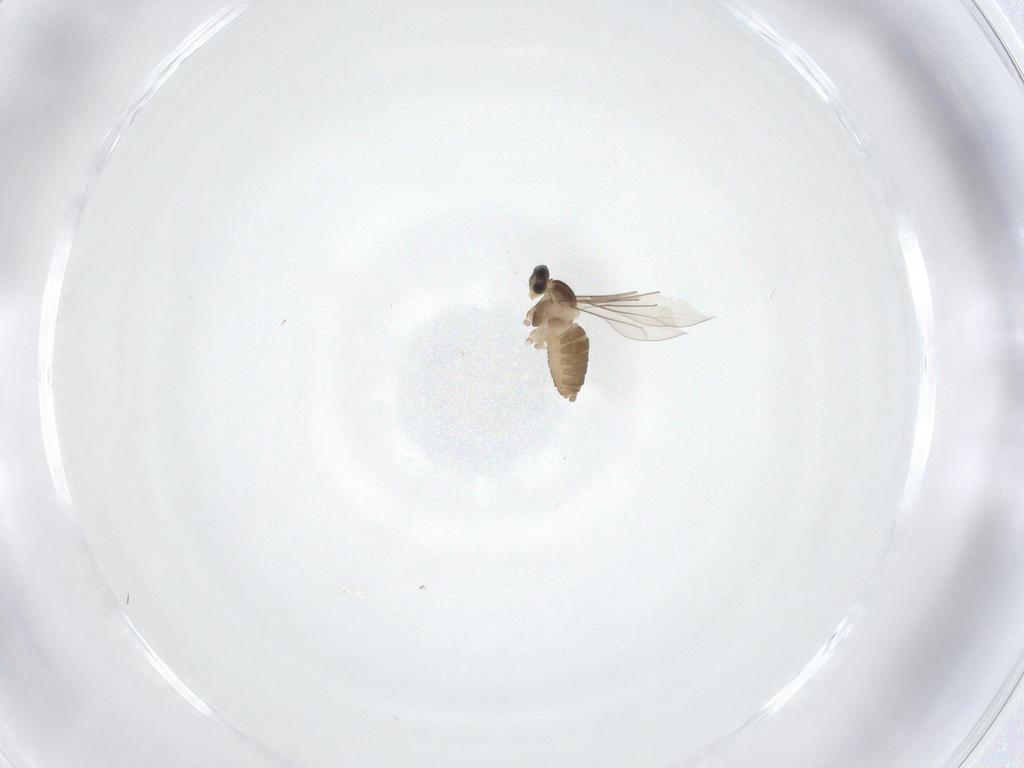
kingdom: Animalia
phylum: Arthropoda
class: Insecta
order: Diptera
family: Cecidomyiidae
